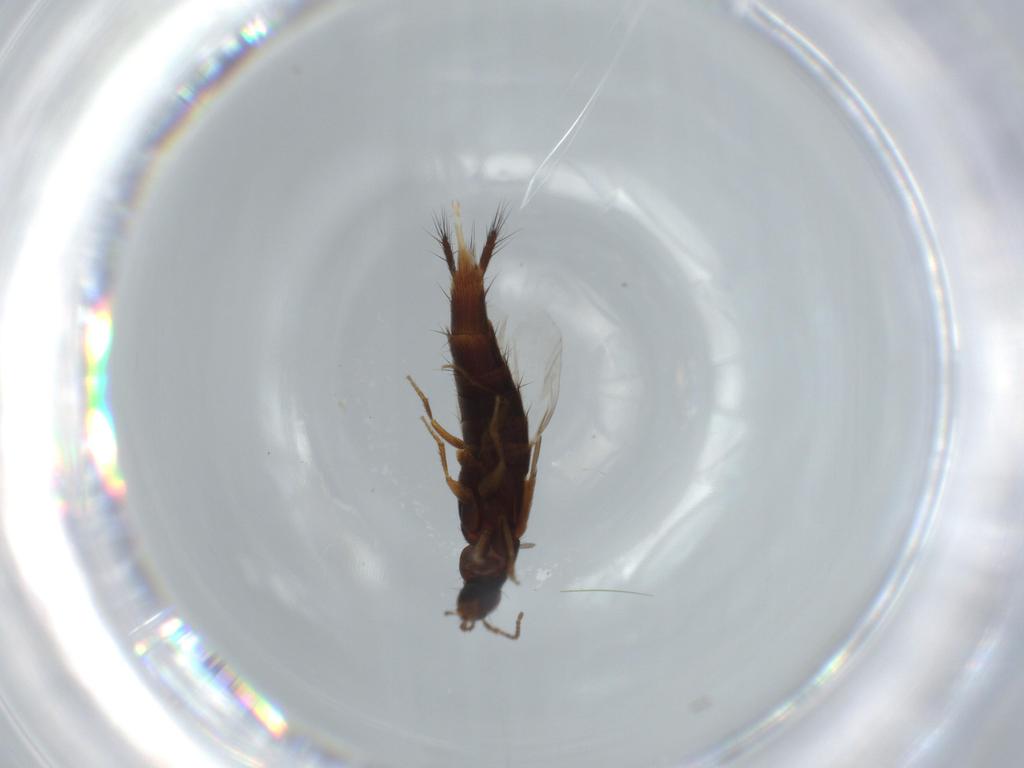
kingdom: Animalia
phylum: Arthropoda
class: Insecta
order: Coleoptera
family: Staphylinidae
